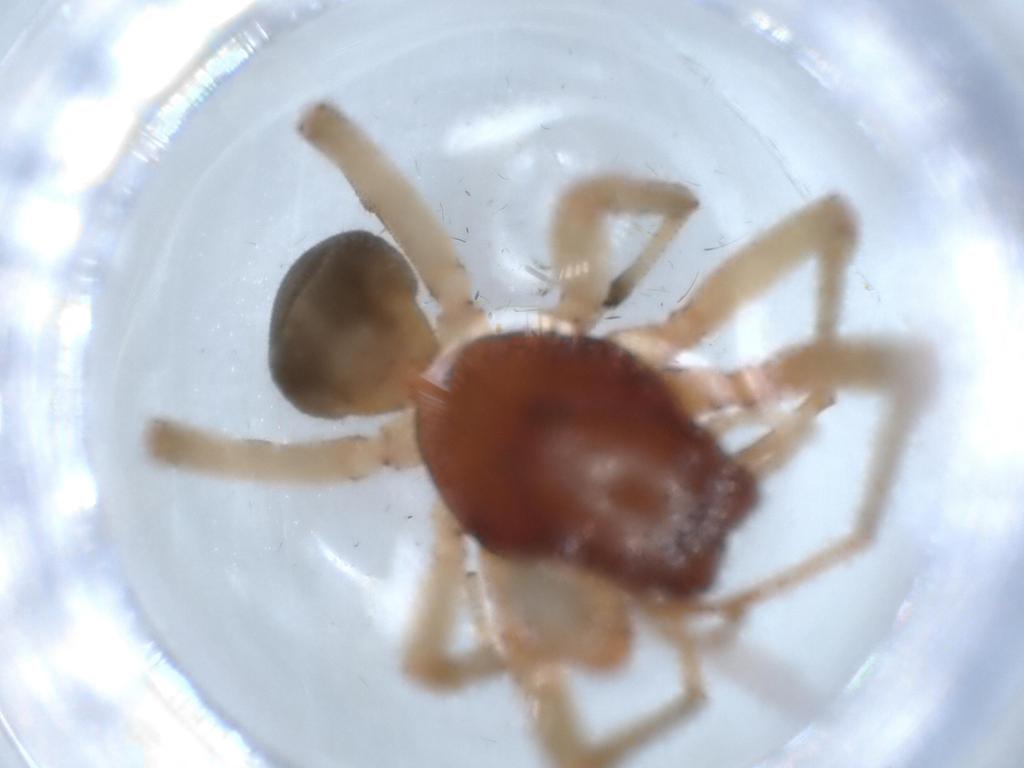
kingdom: Animalia
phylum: Arthropoda
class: Arachnida
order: Araneae
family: Trachelidae
